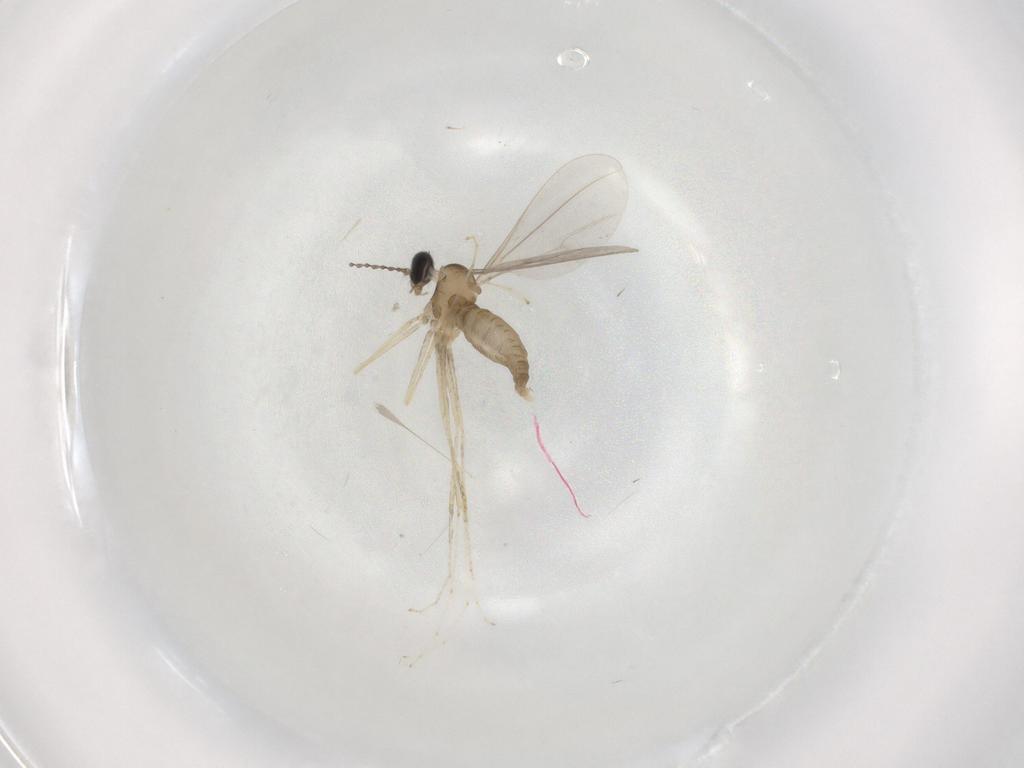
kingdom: Animalia
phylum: Arthropoda
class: Insecta
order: Diptera
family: Cecidomyiidae
